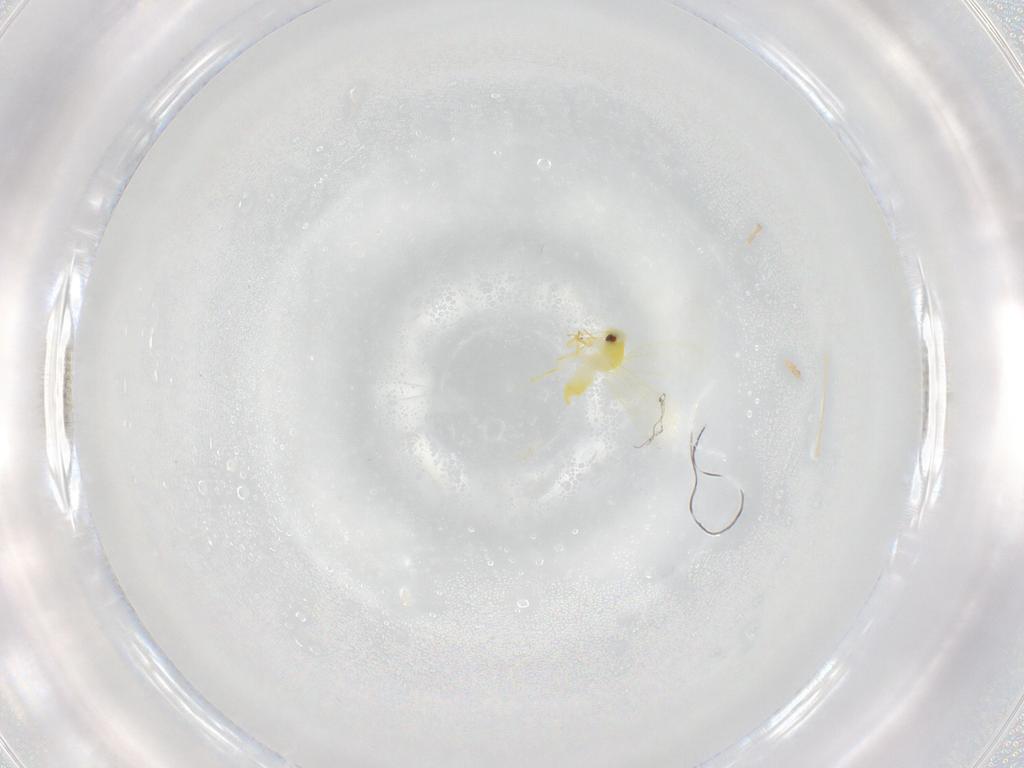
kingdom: Animalia
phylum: Arthropoda
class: Insecta
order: Hemiptera
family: Aleyrodidae
